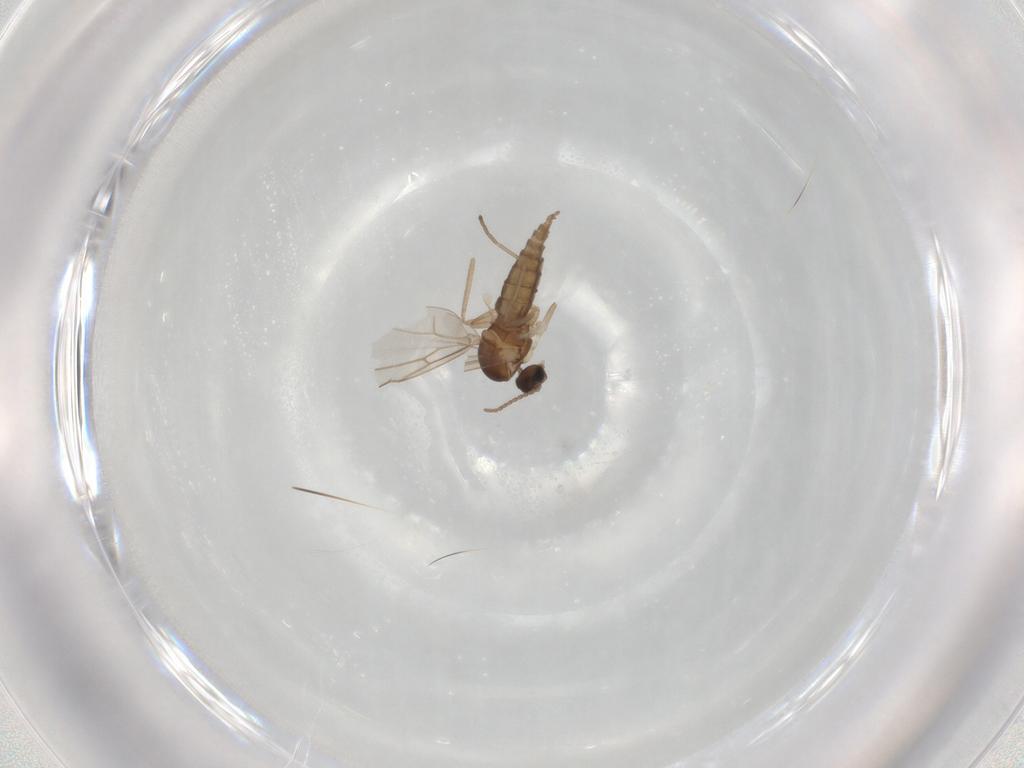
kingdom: Animalia
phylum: Arthropoda
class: Insecta
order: Diptera
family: Cecidomyiidae
